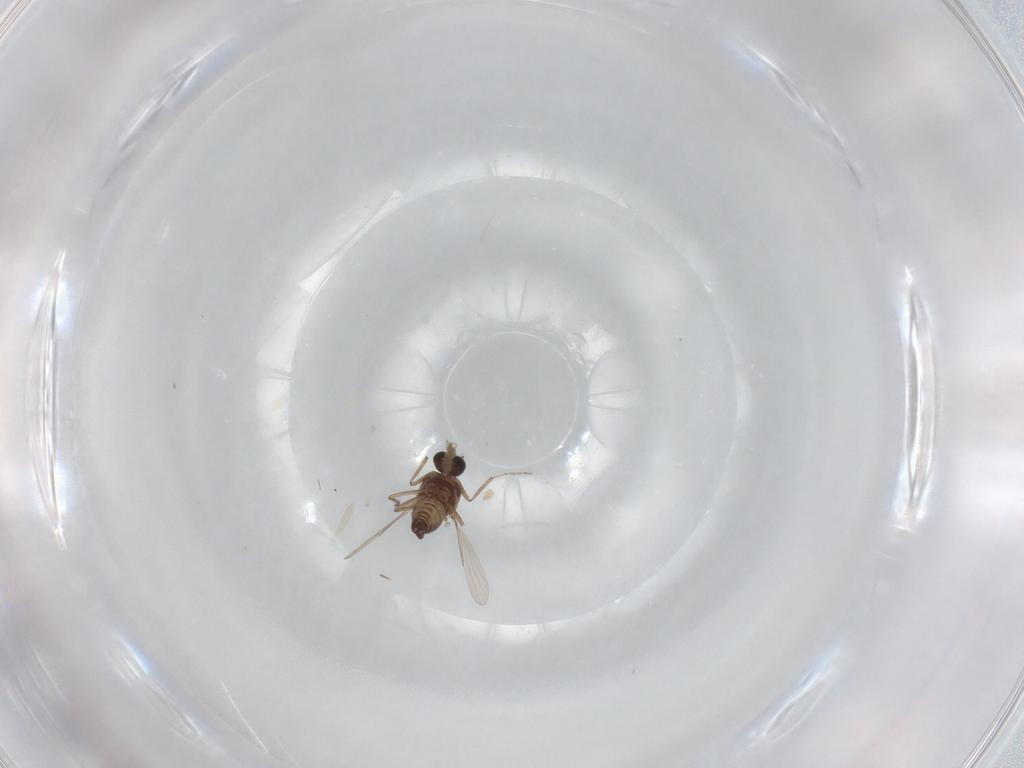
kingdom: Animalia
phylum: Arthropoda
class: Insecta
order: Diptera
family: Ceratopogonidae
